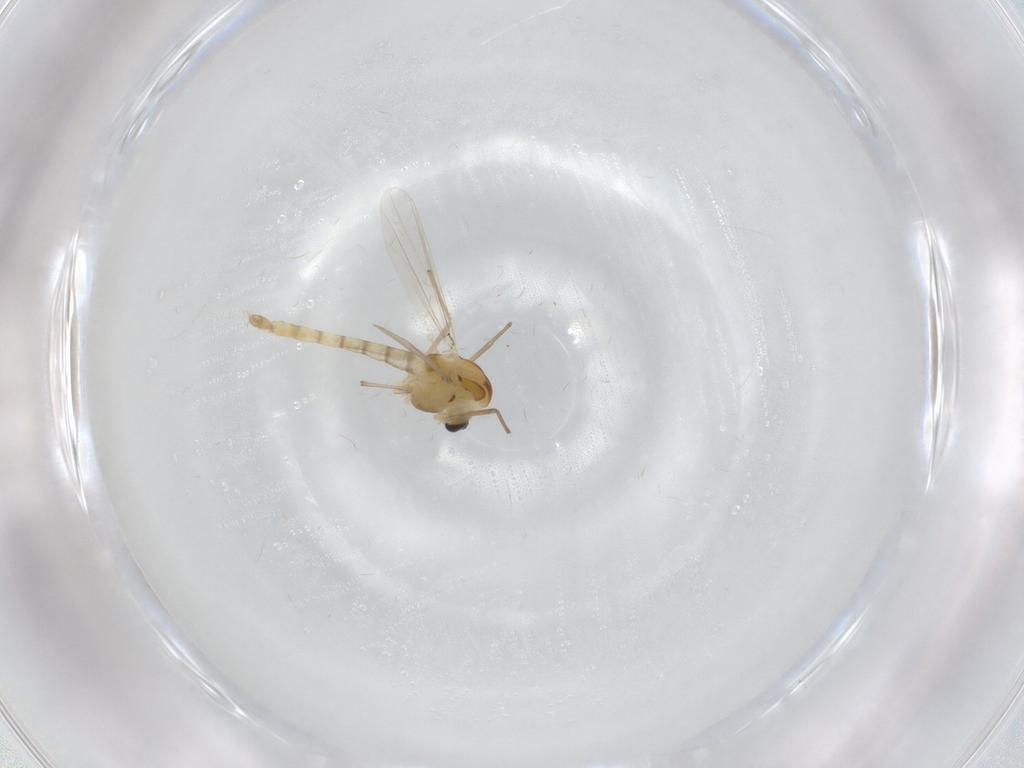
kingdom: Animalia
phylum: Arthropoda
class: Insecta
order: Diptera
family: Chironomidae
